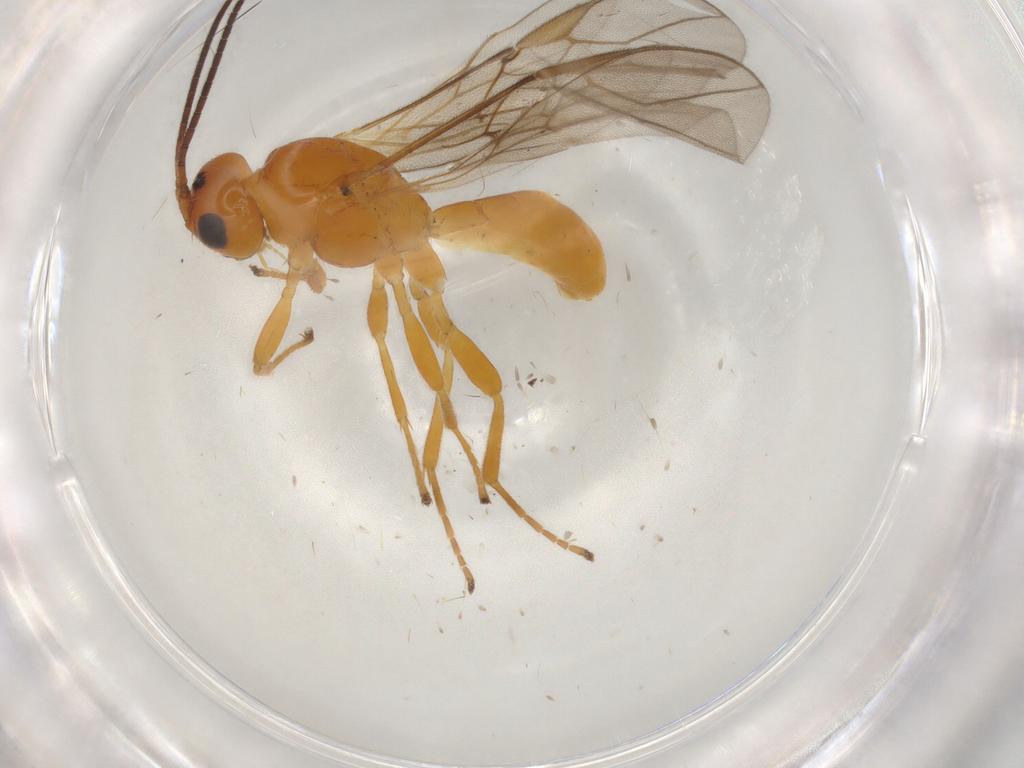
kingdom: Animalia
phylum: Arthropoda
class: Insecta
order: Hymenoptera
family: Braconidae
